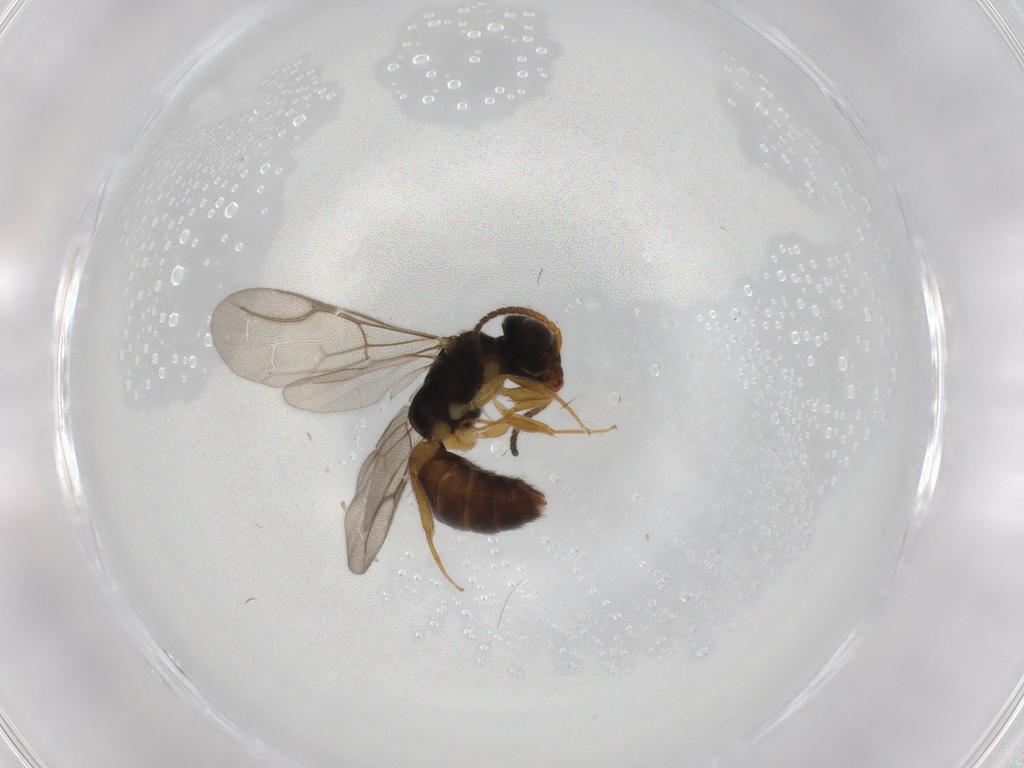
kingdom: Animalia
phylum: Arthropoda
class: Insecta
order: Hymenoptera
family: Bethylidae
